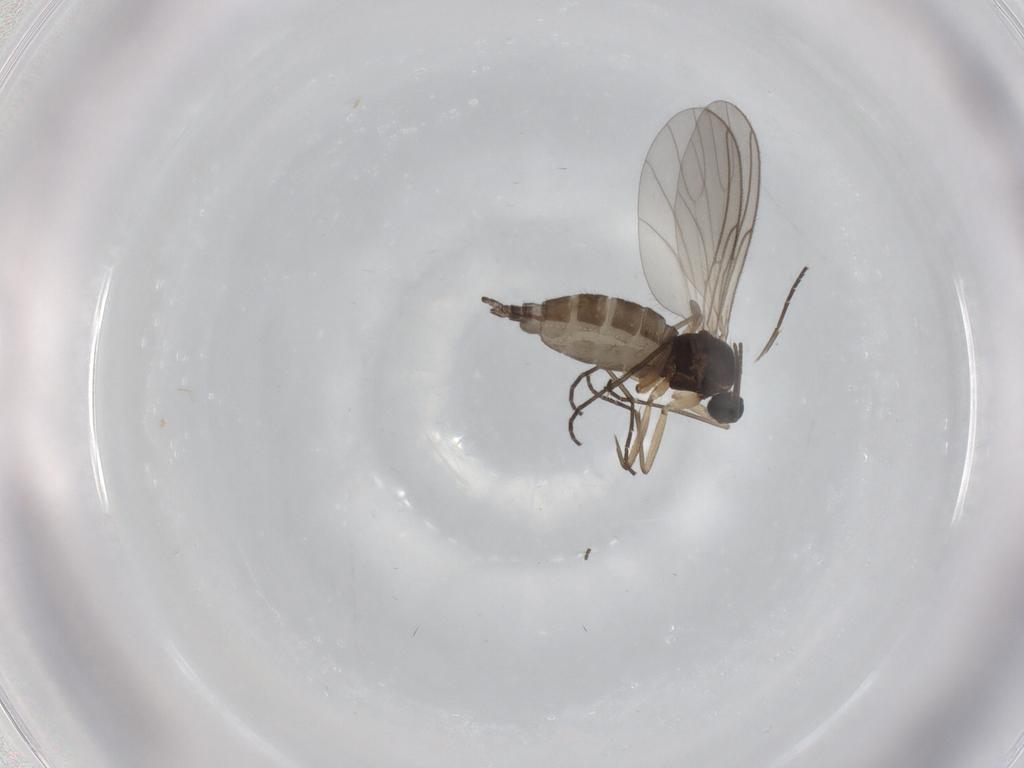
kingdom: Animalia
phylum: Arthropoda
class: Insecta
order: Diptera
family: Sciaridae
